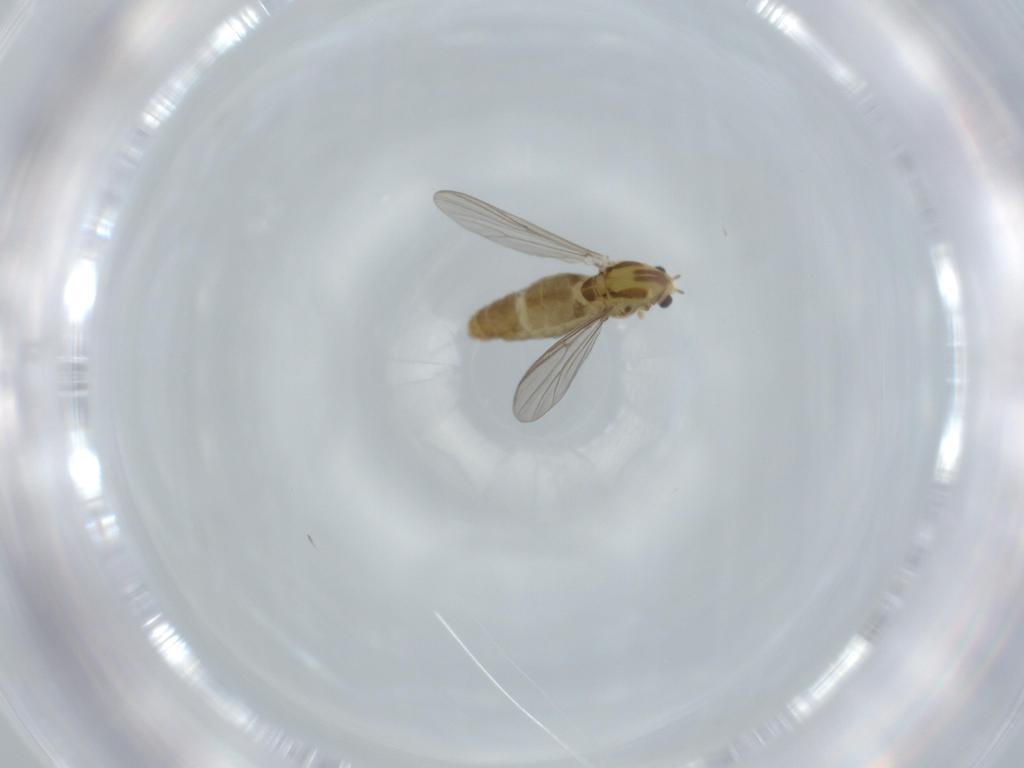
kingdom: Animalia
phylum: Arthropoda
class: Insecta
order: Diptera
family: Chironomidae
